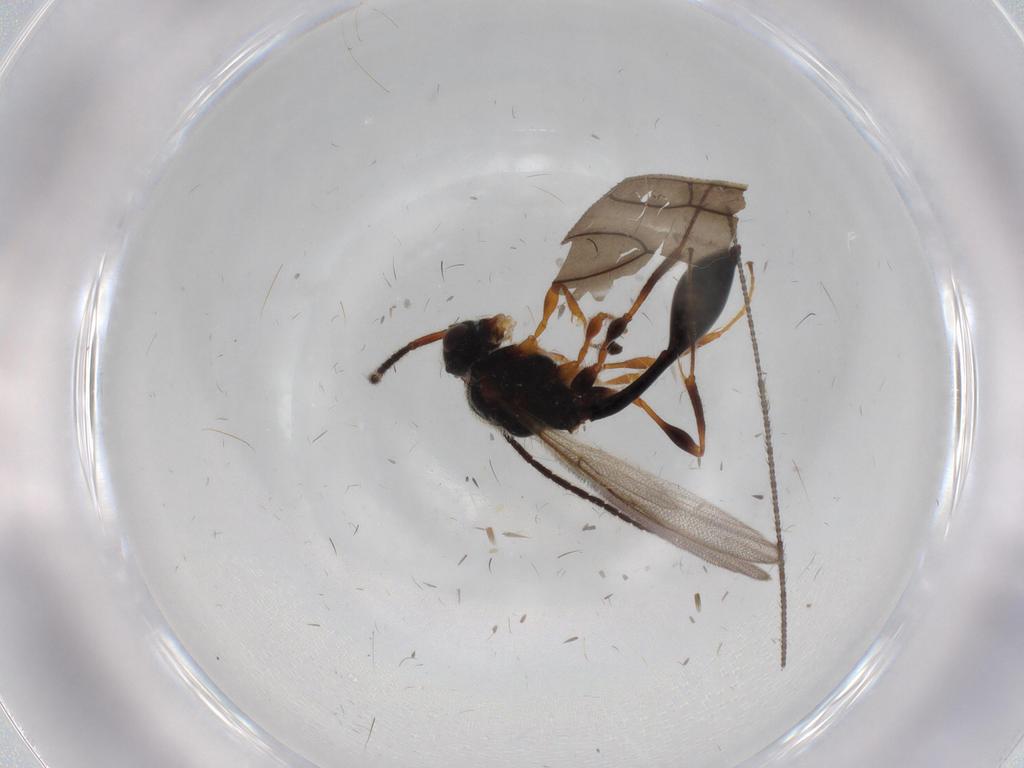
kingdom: Animalia
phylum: Arthropoda
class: Insecta
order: Hymenoptera
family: Diapriidae
